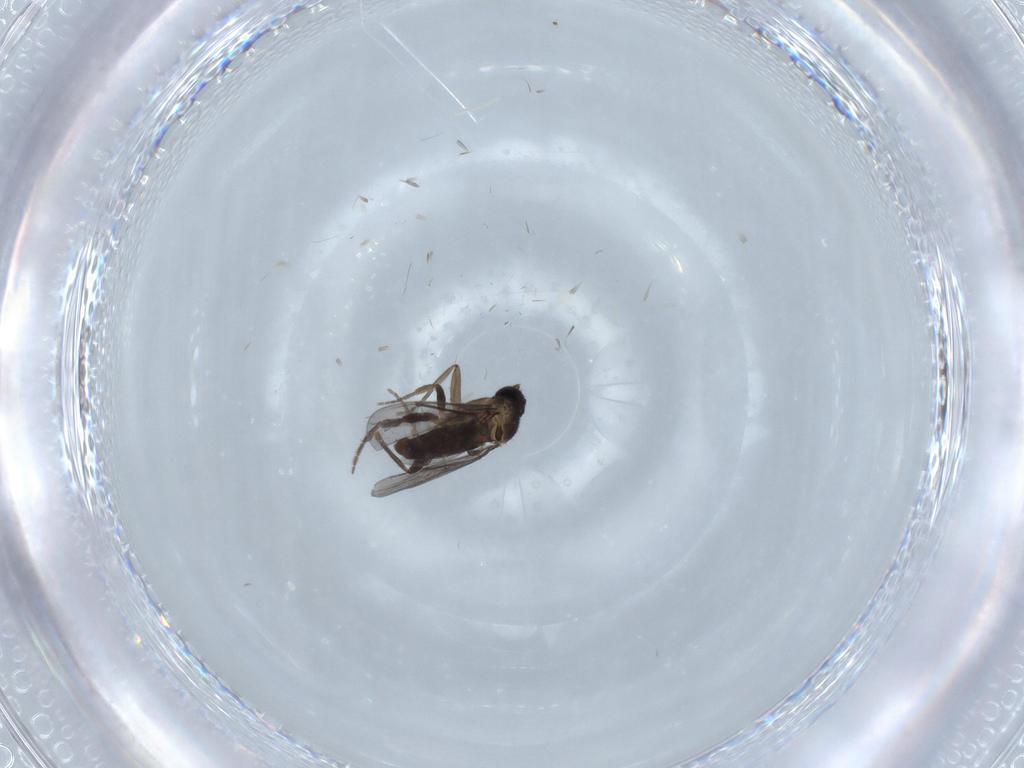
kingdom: Animalia
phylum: Arthropoda
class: Insecta
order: Diptera
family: Phoridae
